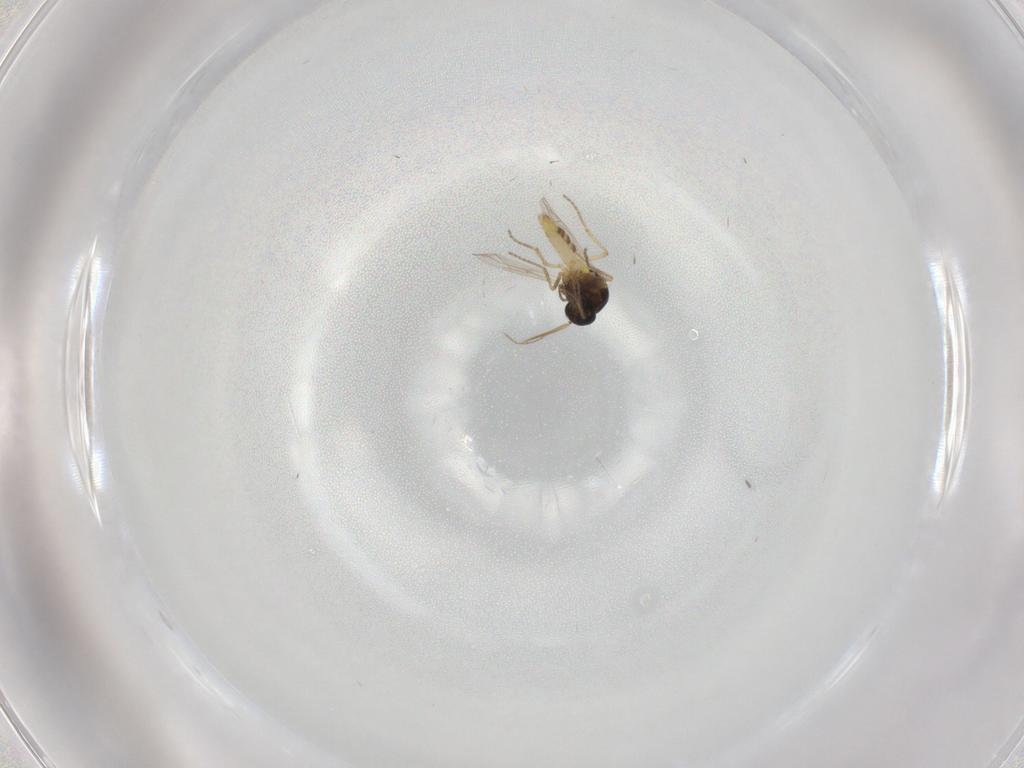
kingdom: Animalia
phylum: Arthropoda
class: Insecta
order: Diptera
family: Ceratopogonidae
